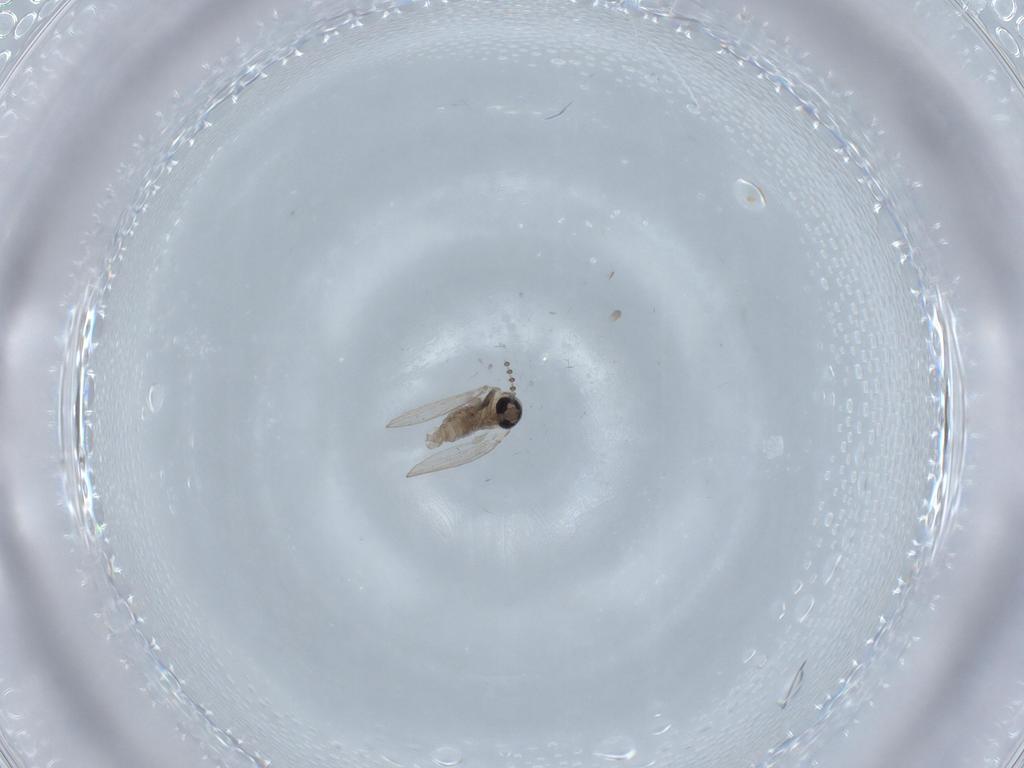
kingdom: Animalia
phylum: Arthropoda
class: Insecta
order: Diptera
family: Psychodidae
